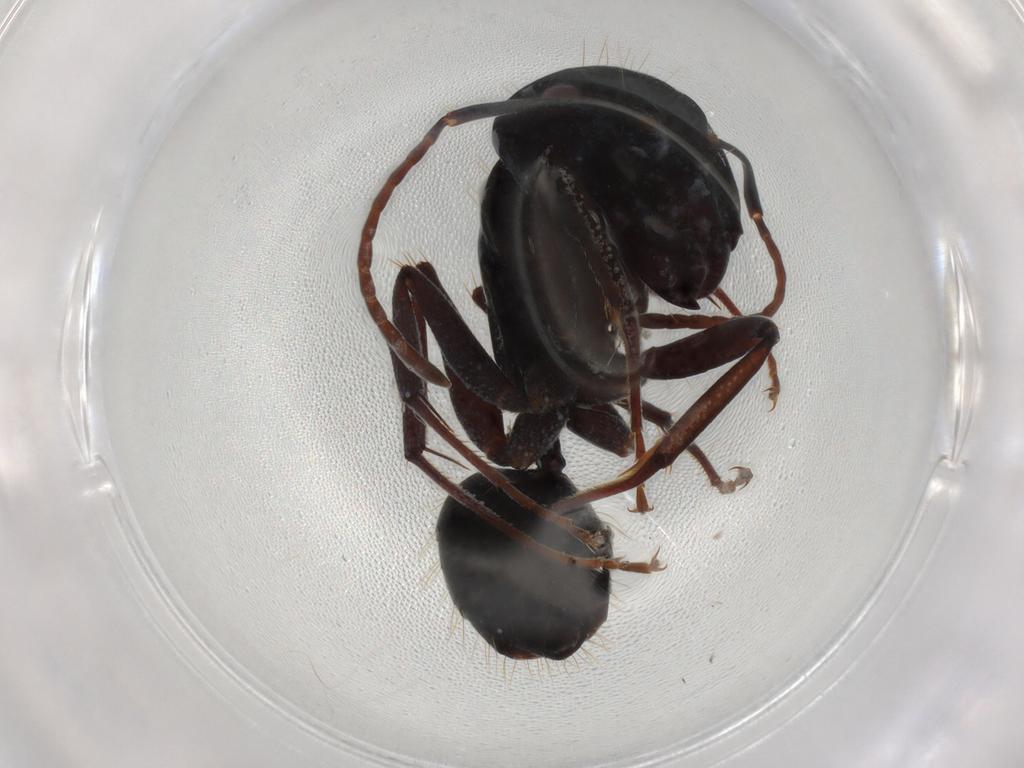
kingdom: Animalia
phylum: Arthropoda
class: Insecta
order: Hymenoptera
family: Formicidae
